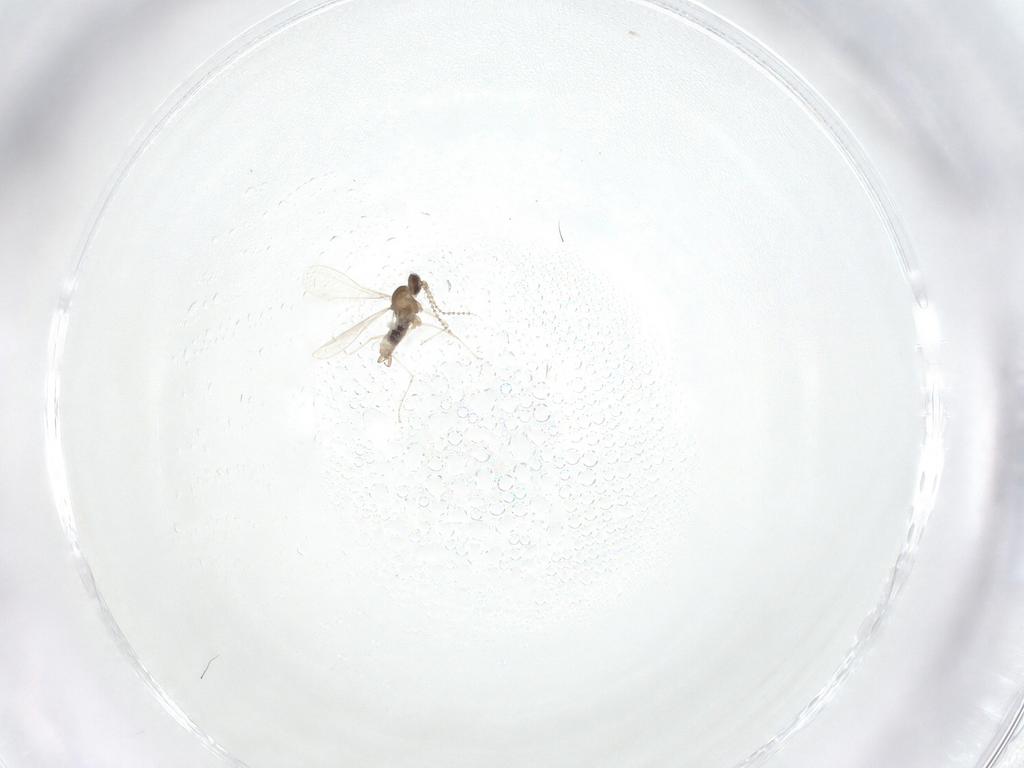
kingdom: Animalia
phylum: Arthropoda
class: Insecta
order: Diptera
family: Cecidomyiidae
